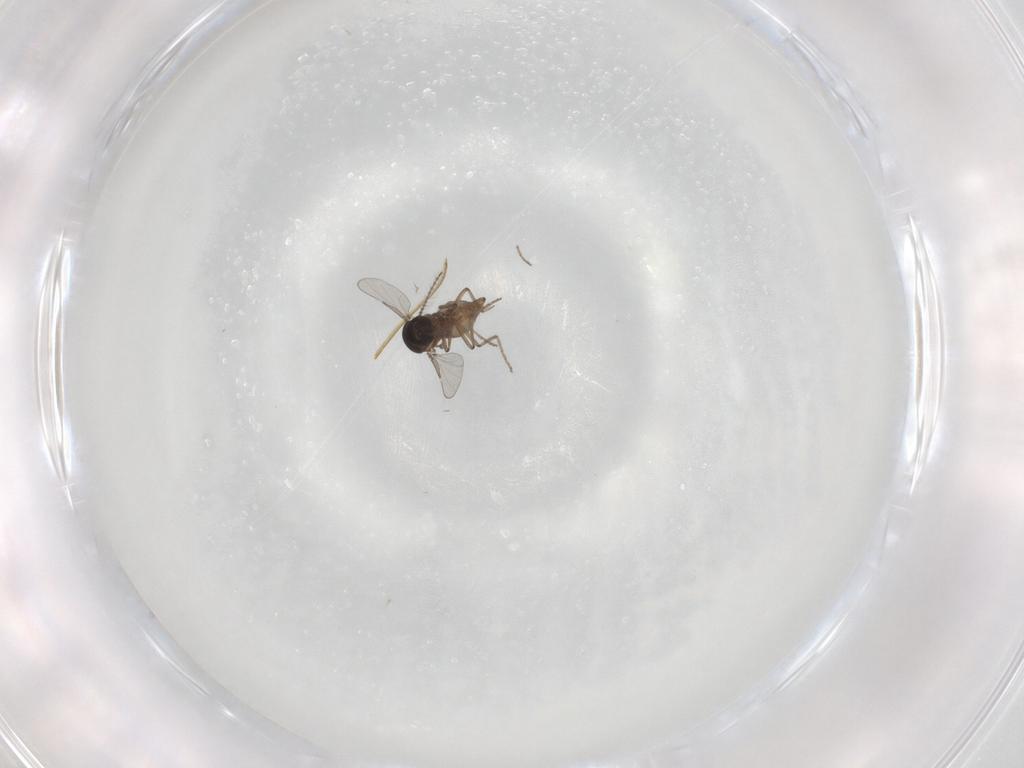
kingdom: Animalia
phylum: Arthropoda
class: Insecta
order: Diptera
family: Ceratopogonidae
